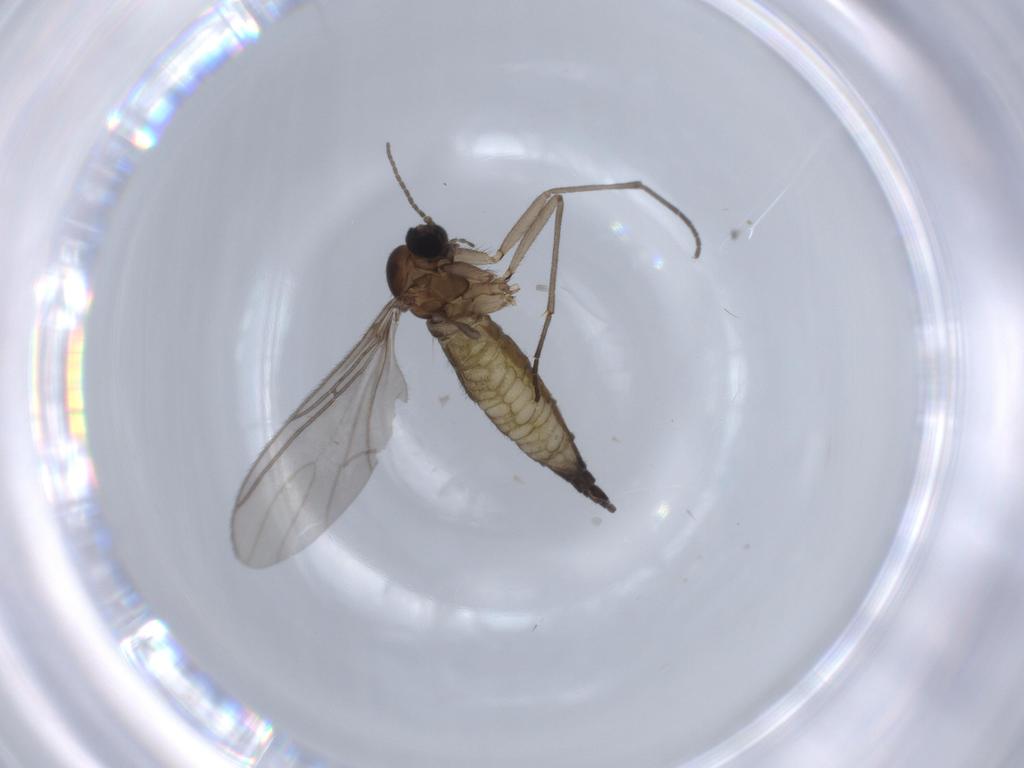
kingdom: Animalia
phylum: Arthropoda
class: Insecta
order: Diptera
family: Sciaridae
